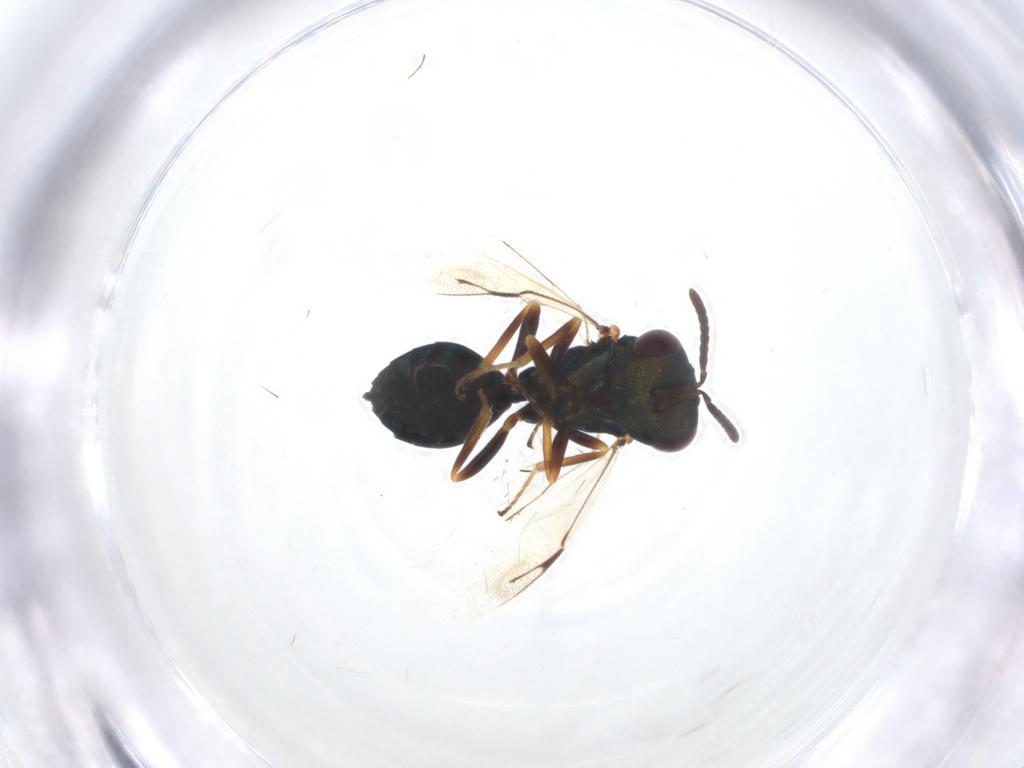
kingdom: Animalia
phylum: Arthropoda
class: Insecta
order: Hymenoptera
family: Pteromalidae
